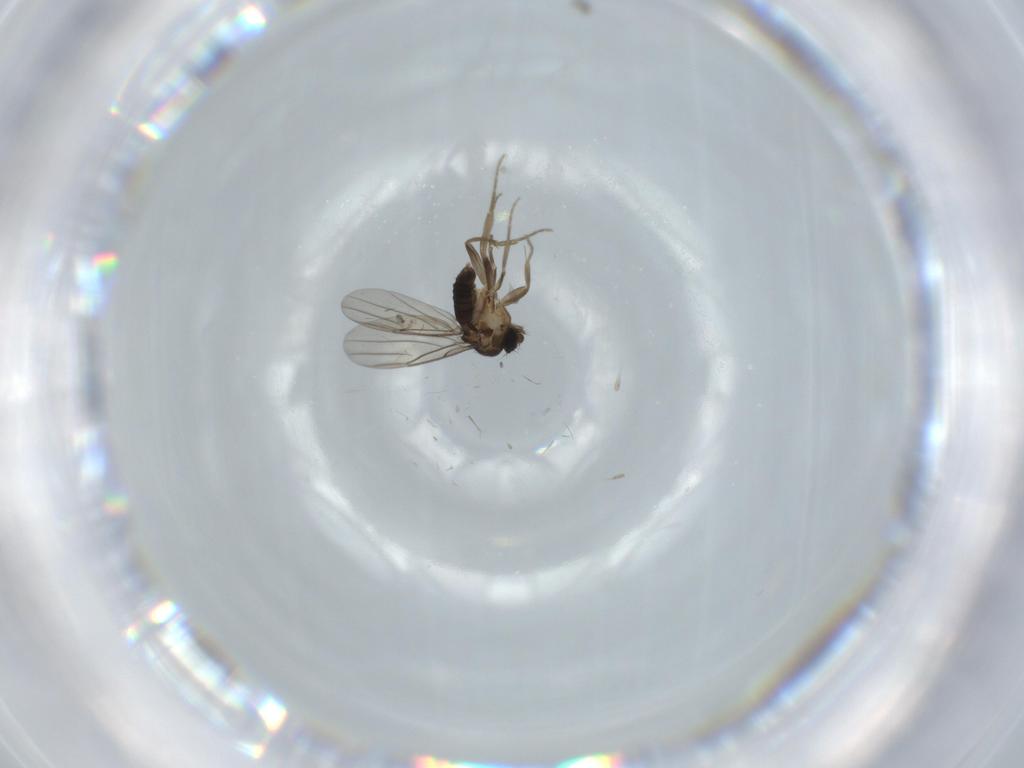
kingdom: Animalia
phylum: Arthropoda
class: Insecta
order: Diptera
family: Phoridae
